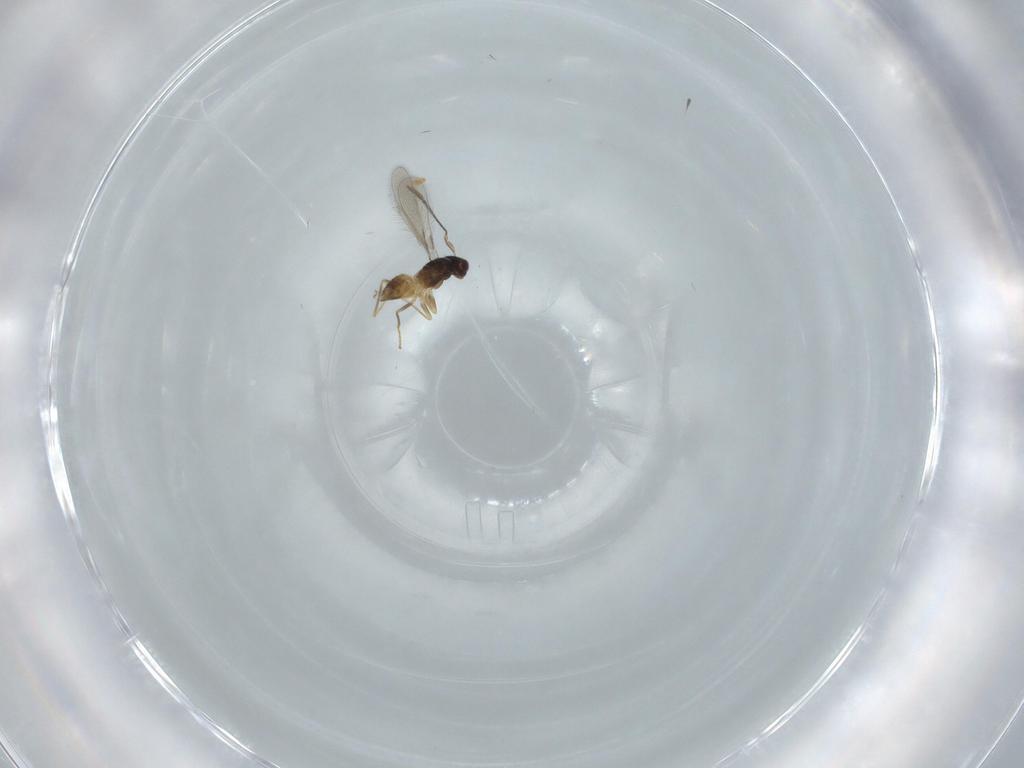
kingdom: Animalia
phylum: Arthropoda
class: Insecta
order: Hymenoptera
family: Mymaridae
